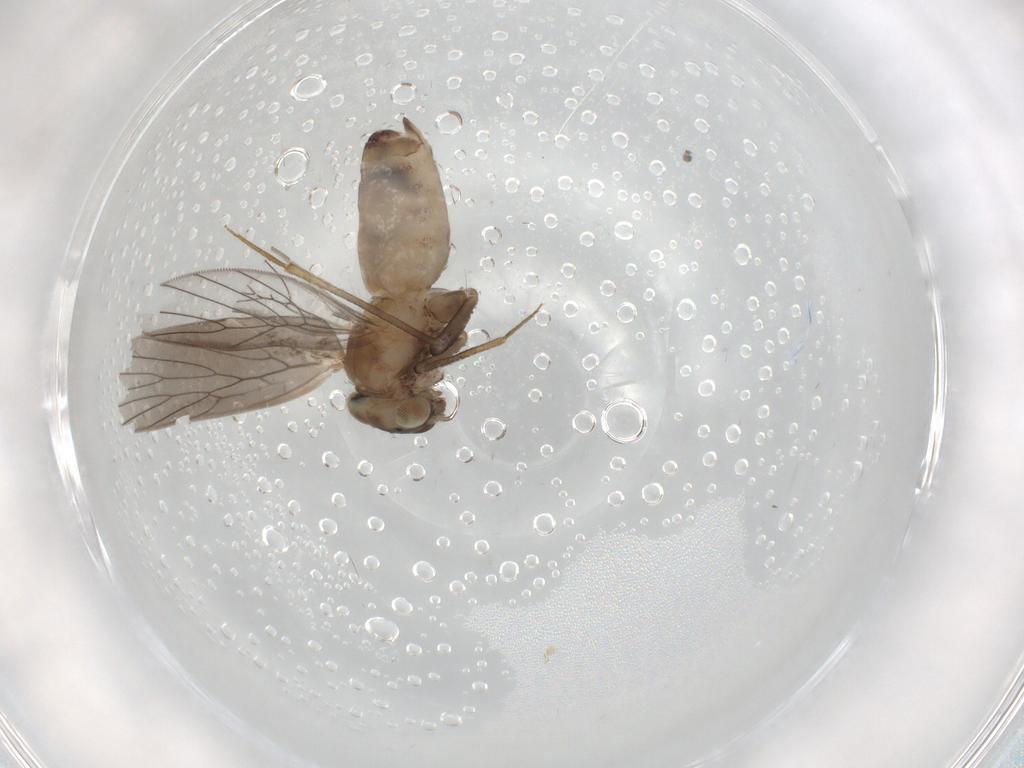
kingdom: Animalia
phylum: Arthropoda
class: Insecta
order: Psocodea
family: Lepidopsocidae
